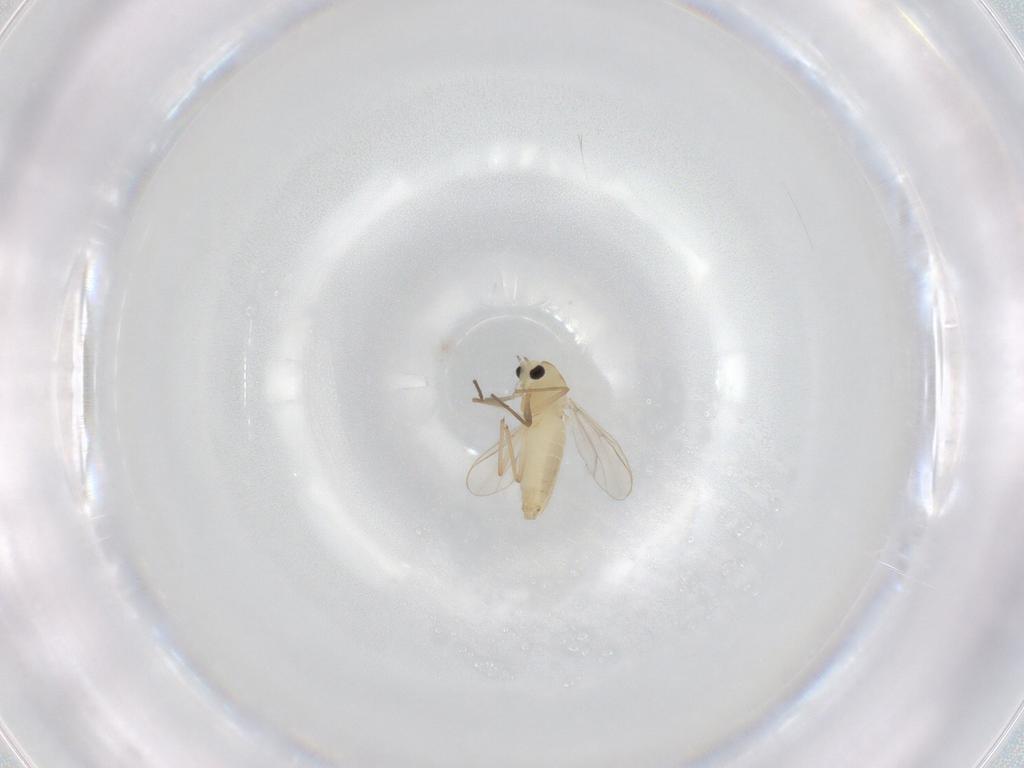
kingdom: Animalia
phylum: Arthropoda
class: Insecta
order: Diptera
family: Chironomidae
